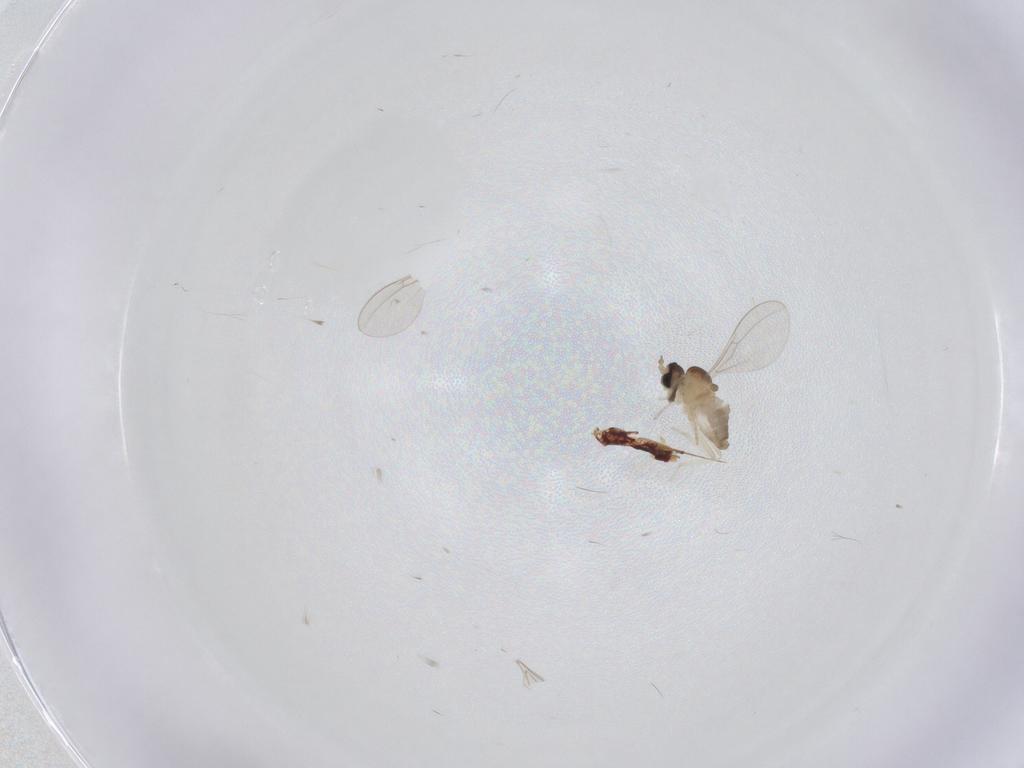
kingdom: Animalia
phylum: Arthropoda
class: Insecta
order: Diptera
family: Cecidomyiidae
